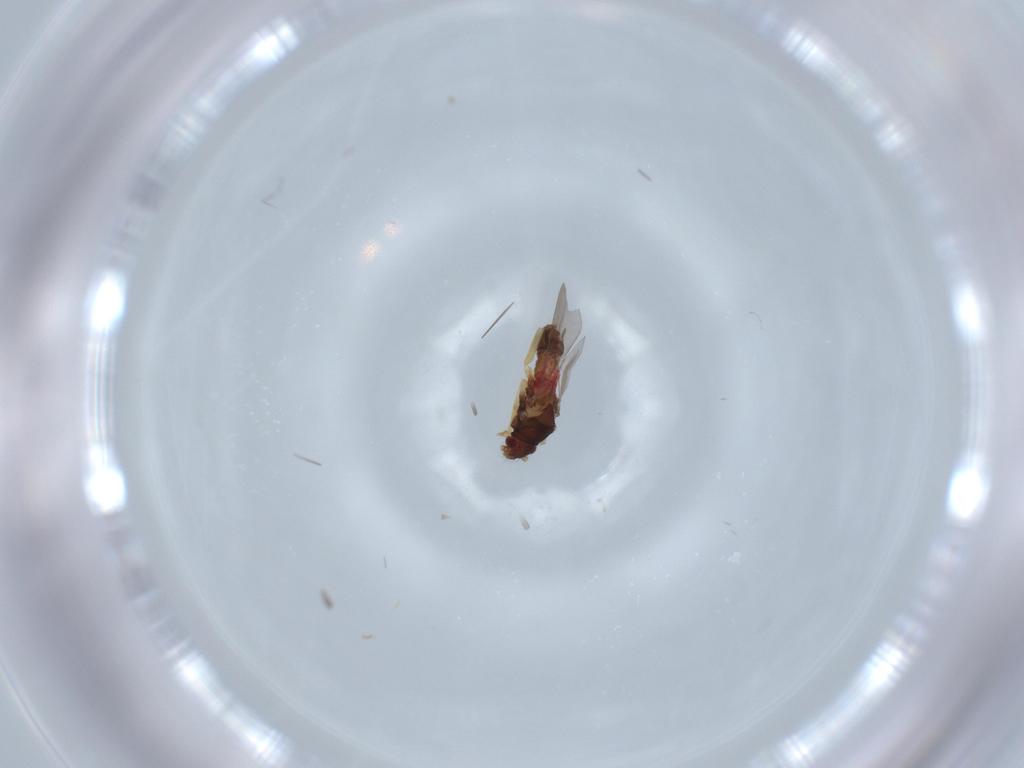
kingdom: Animalia
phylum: Arthropoda
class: Insecta
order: Hemiptera
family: Ceratocombidae
